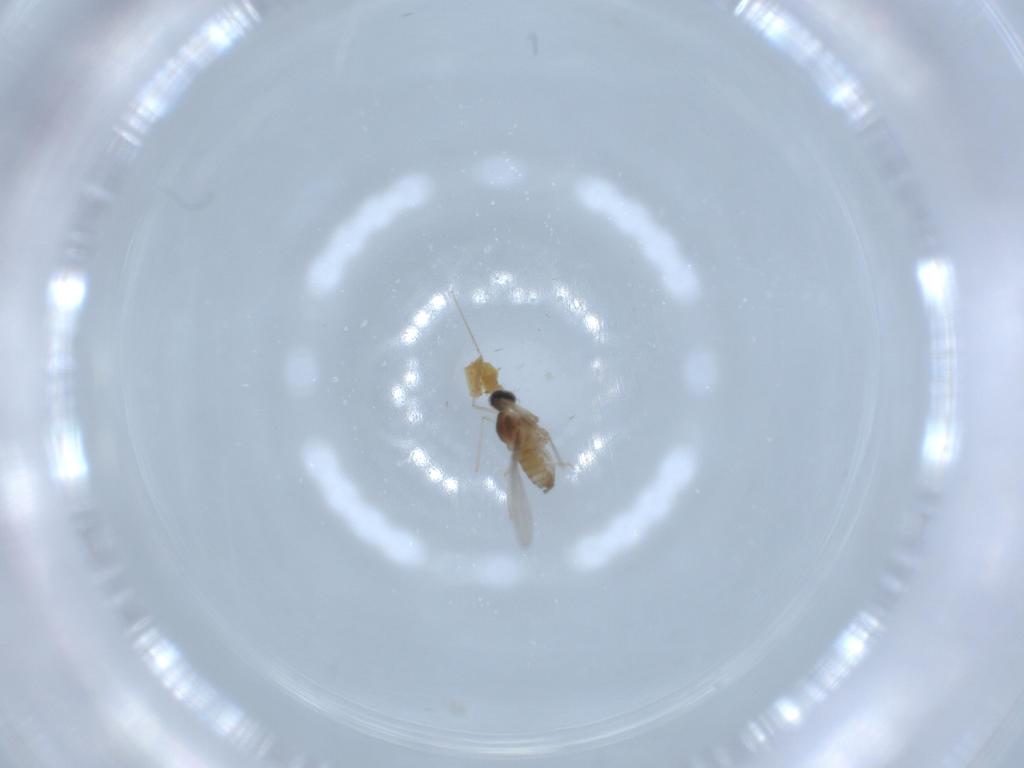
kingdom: Animalia
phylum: Arthropoda
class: Insecta
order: Diptera
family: Cecidomyiidae
